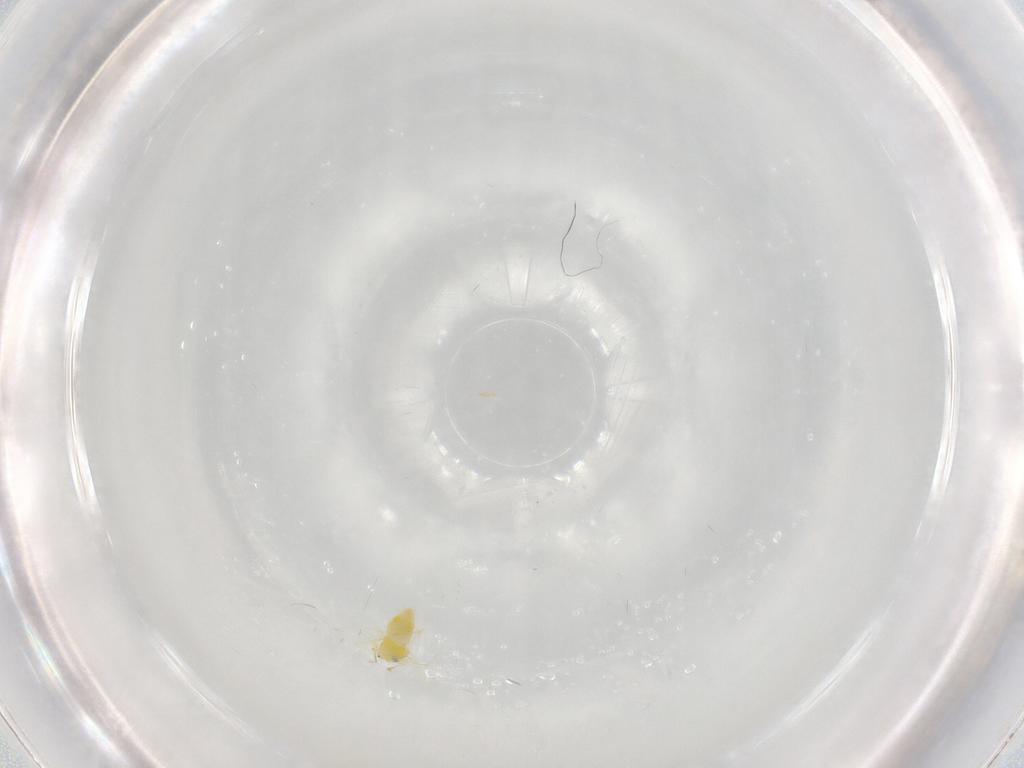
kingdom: Animalia
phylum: Arthropoda
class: Insecta
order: Hemiptera
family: Aleyrodidae
